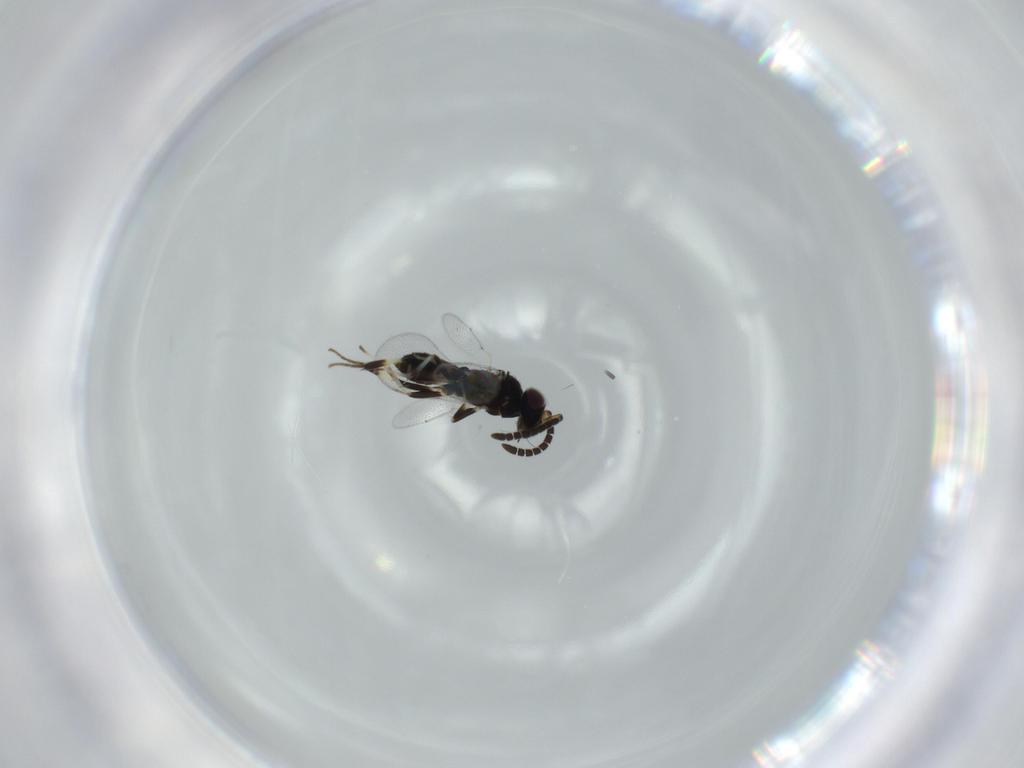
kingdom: Animalia
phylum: Arthropoda
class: Insecta
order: Hymenoptera
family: Eupelmidae
